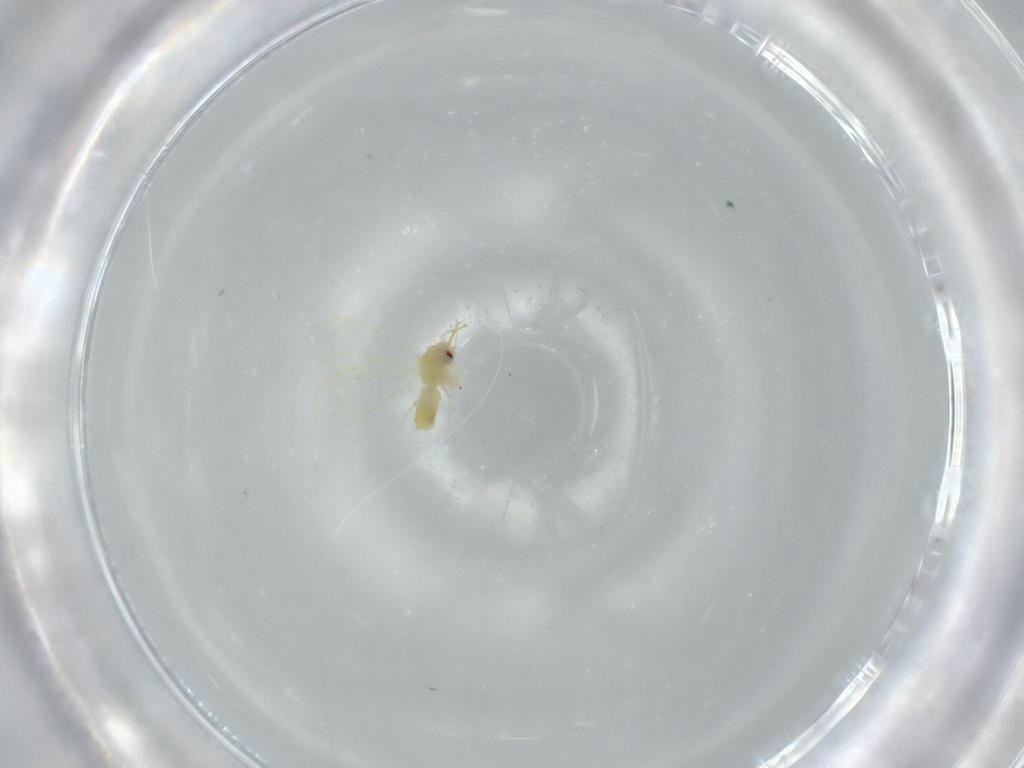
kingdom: Animalia
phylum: Arthropoda
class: Insecta
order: Hemiptera
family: Aleyrodidae
